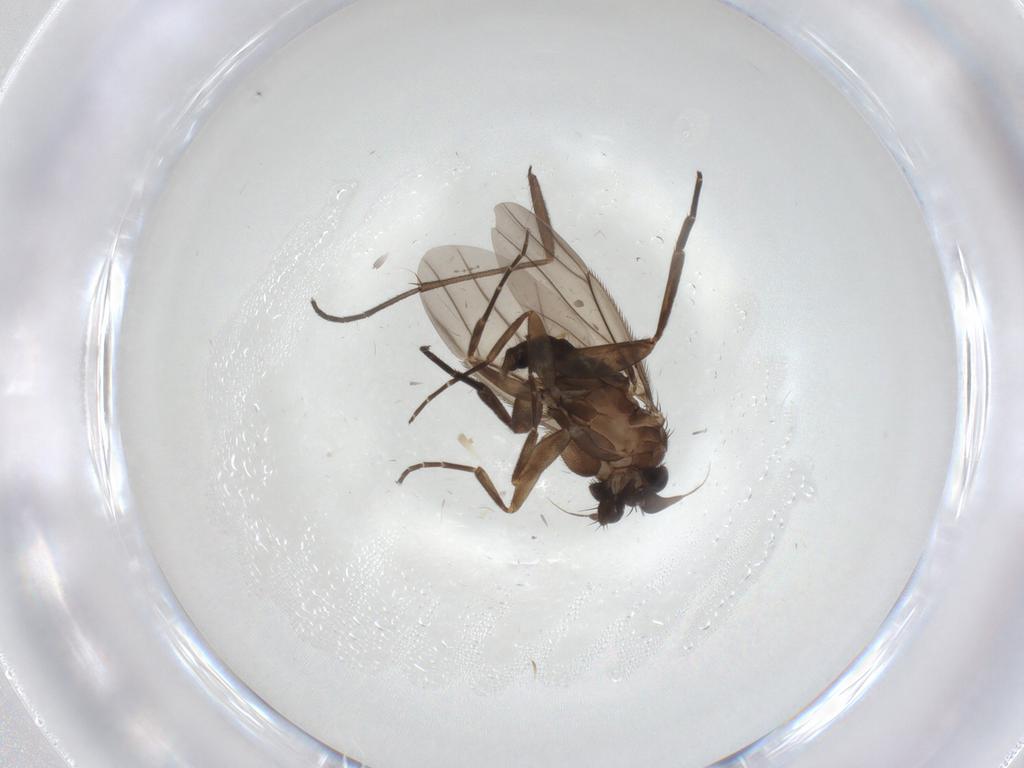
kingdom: Animalia
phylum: Arthropoda
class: Insecta
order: Diptera
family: Phoridae
